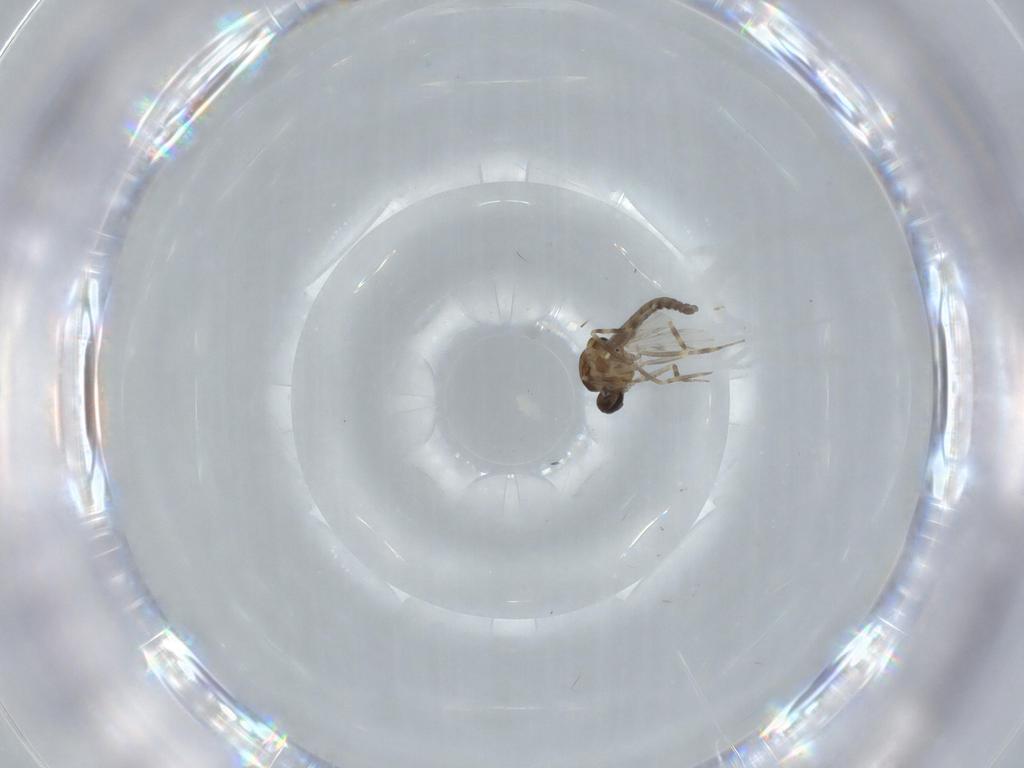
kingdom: Animalia
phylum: Arthropoda
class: Insecta
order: Diptera
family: Ceratopogonidae
